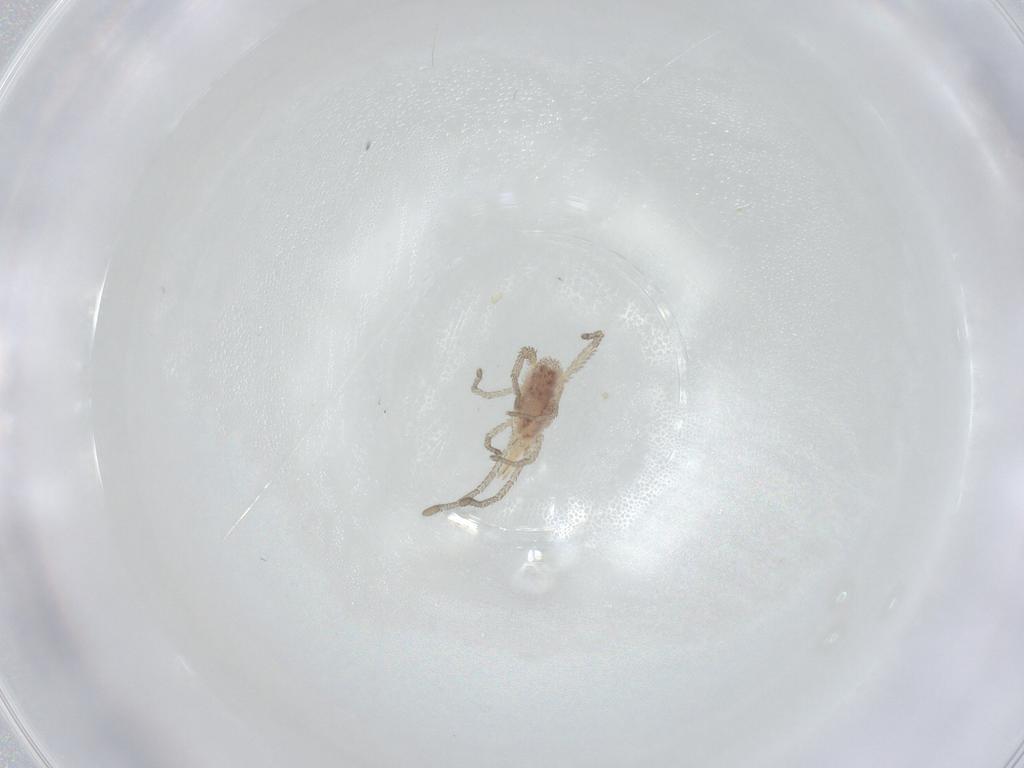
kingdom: Animalia
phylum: Arthropoda
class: Arachnida
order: Trombidiformes
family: Smarididae
